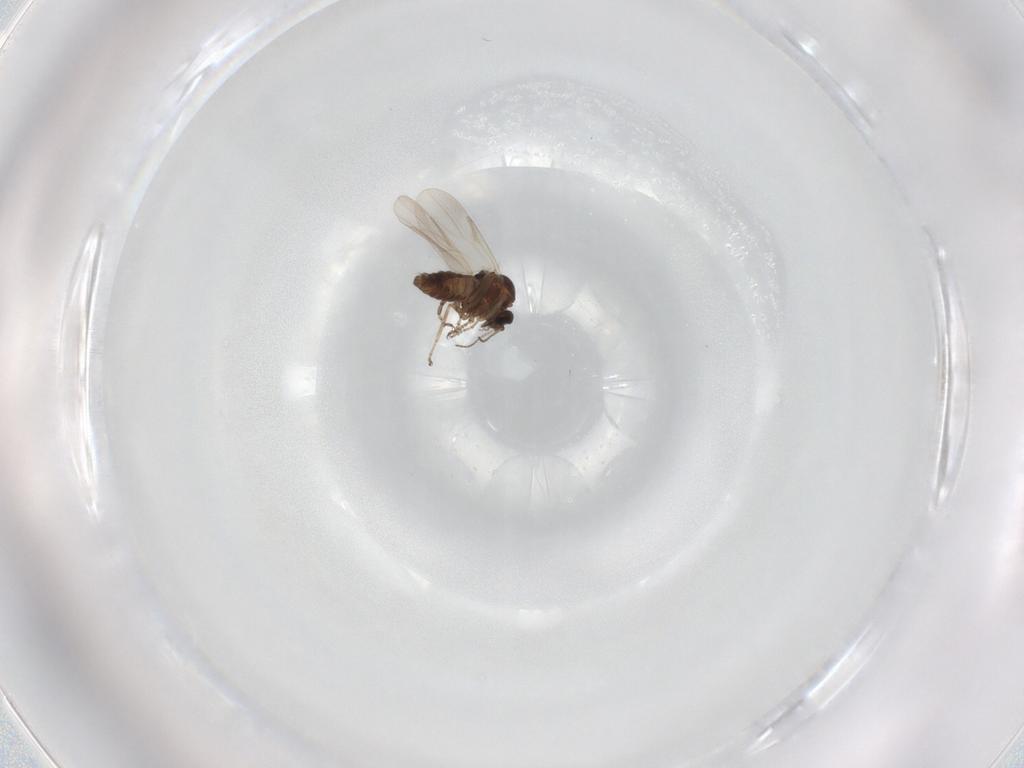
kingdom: Animalia
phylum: Arthropoda
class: Insecta
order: Diptera
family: Ceratopogonidae
